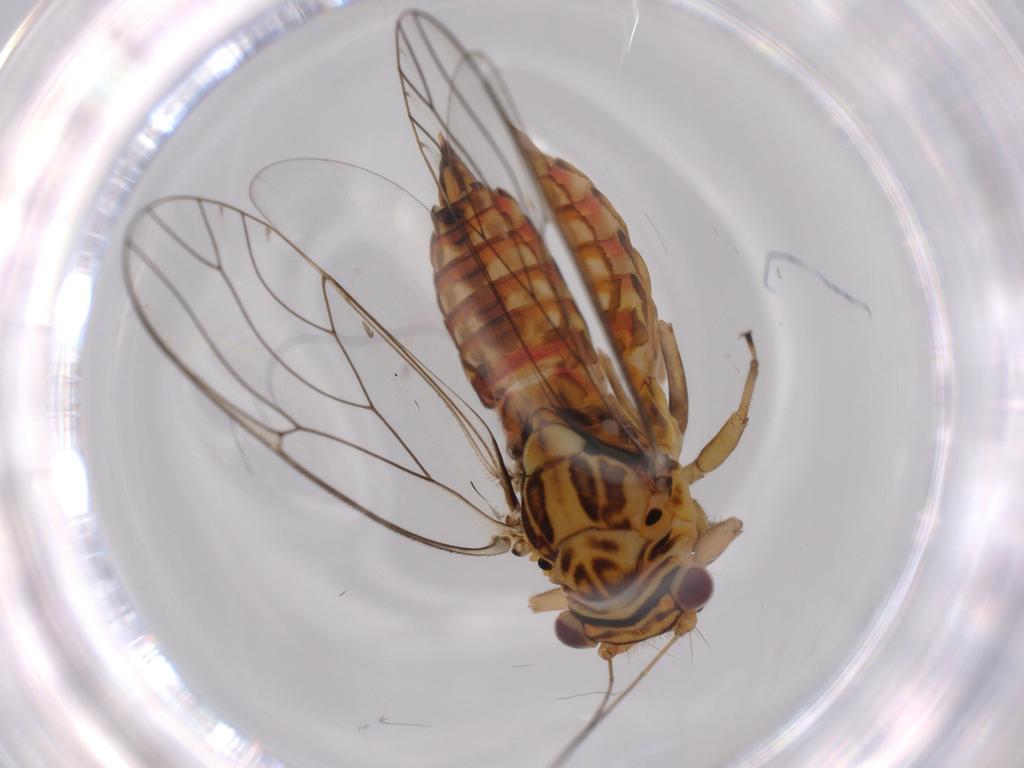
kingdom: Animalia
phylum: Arthropoda
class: Insecta
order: Hemiptera
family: Psyllidae
